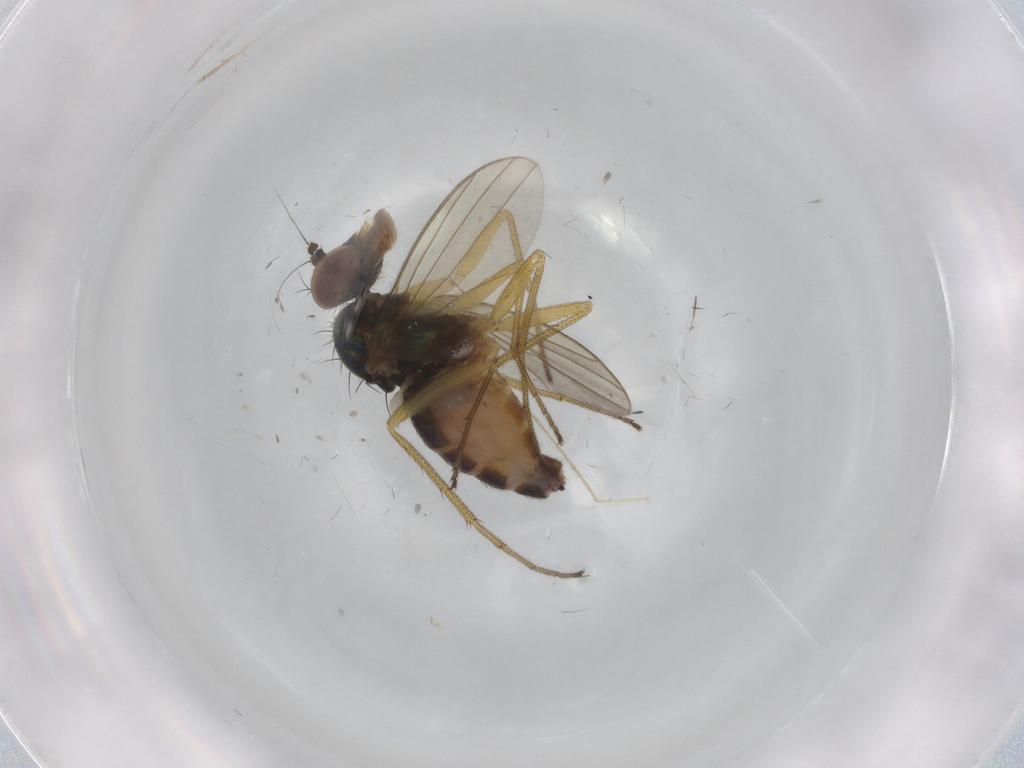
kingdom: Animalia
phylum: Arthropoda
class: Insecta
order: Diptera
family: Dolichopodidae
